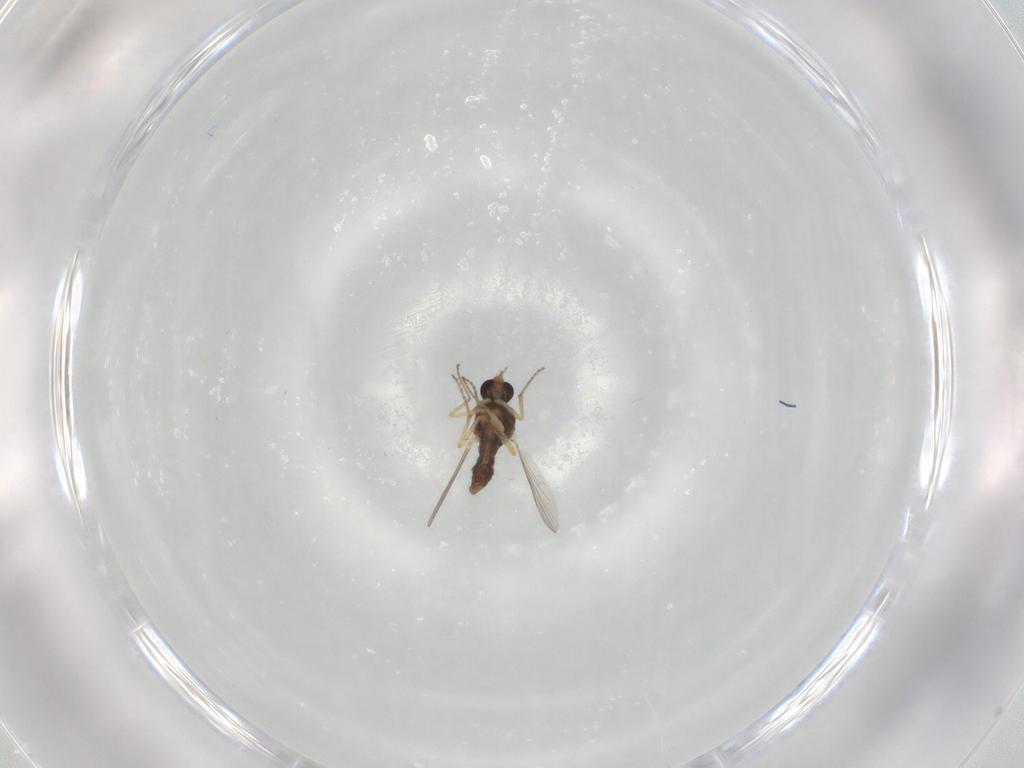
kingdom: Animalia
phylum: Arthropoda
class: Insecta
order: Diptera
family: Ceratopogonidae
